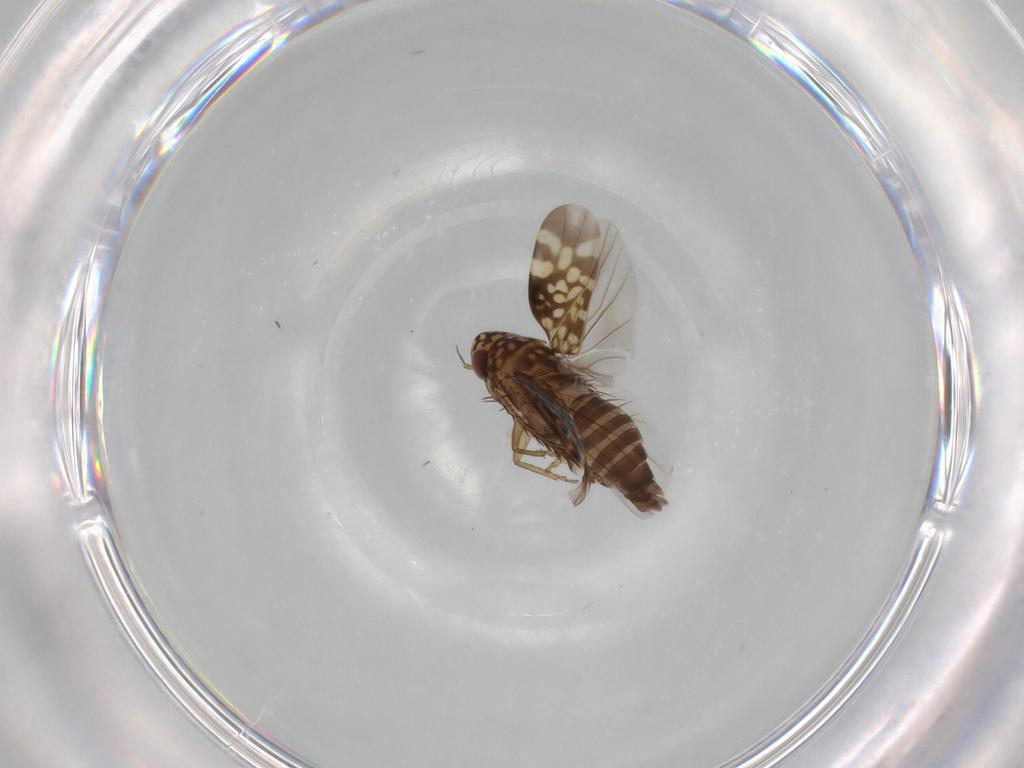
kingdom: Animalia
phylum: Arthropoda
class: Insecta
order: Hemiptera
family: Cicadellidae
